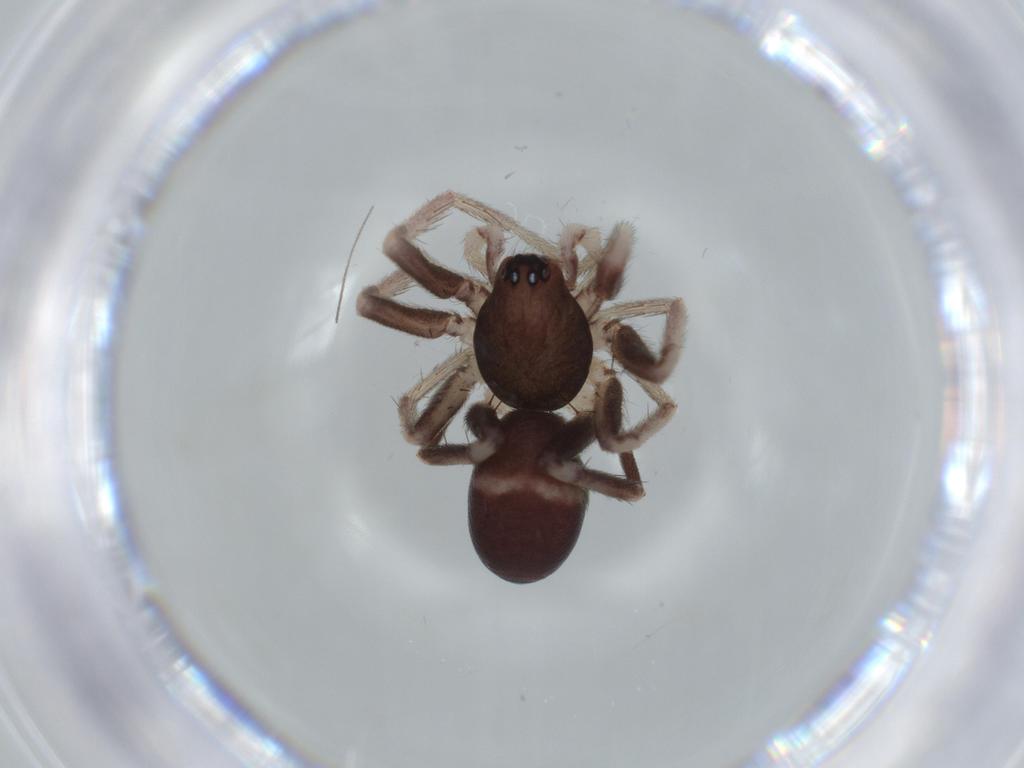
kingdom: Animalia
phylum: Arthropoda
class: Arachnida
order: Araneae
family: Corinnidae
